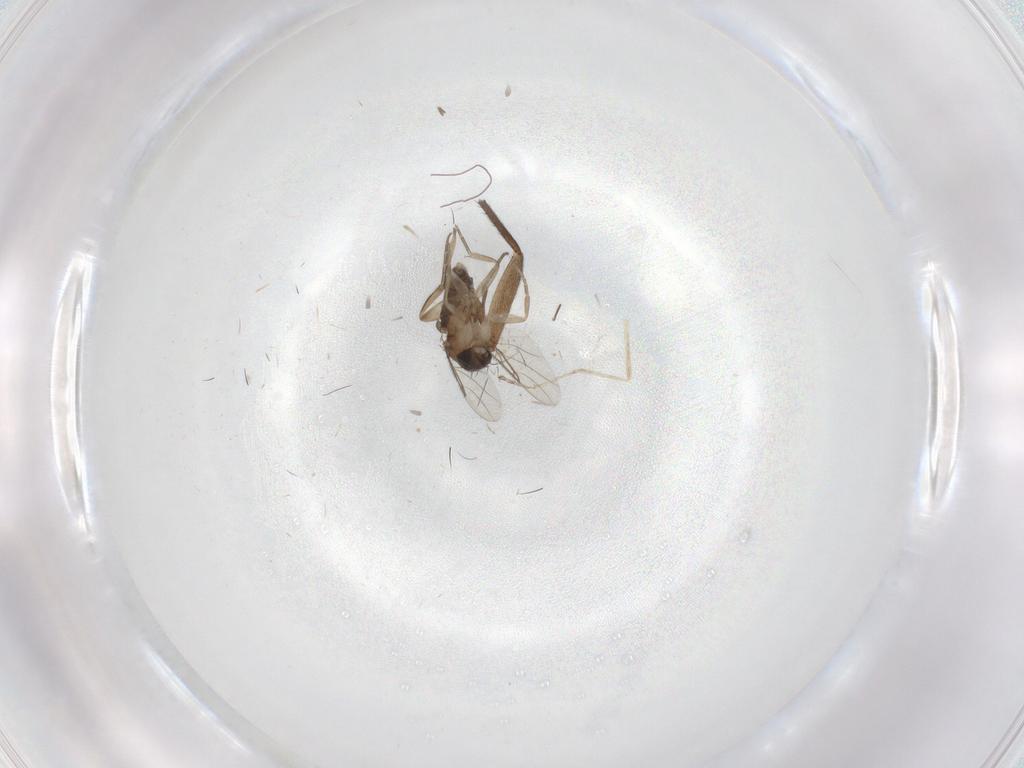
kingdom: Animalia
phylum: Arthropoda
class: Insecta
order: Diptera
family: Phoridae
